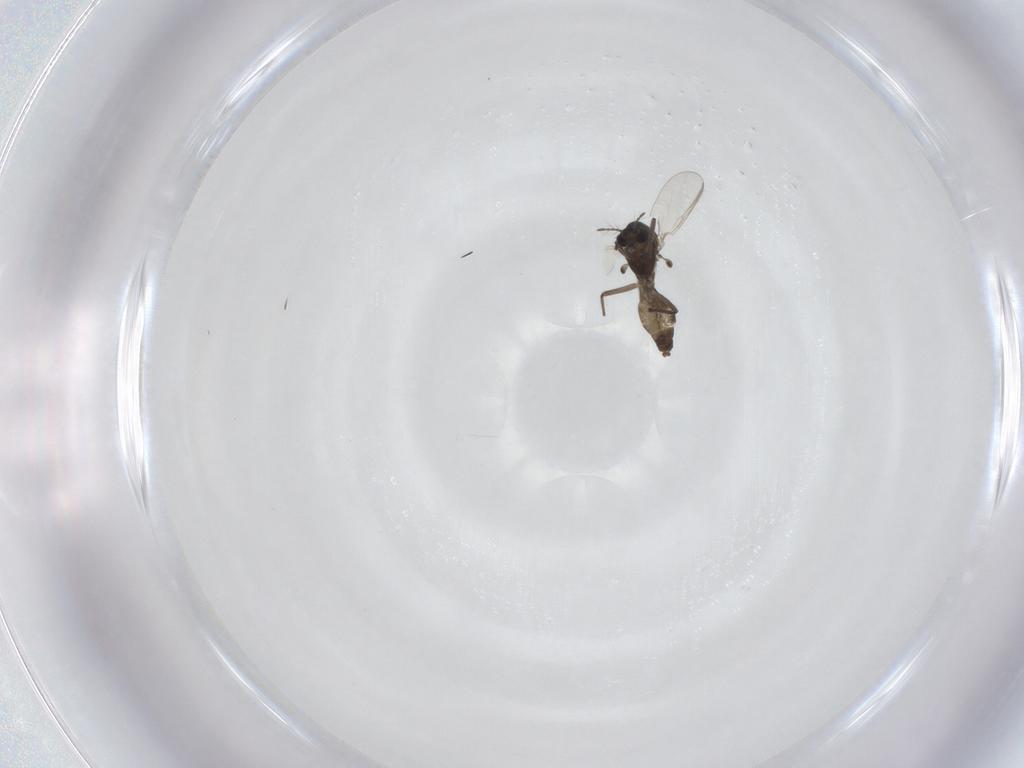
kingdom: Animalia
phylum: Arthropoda
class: Insecta
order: Diptera
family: Chironomidae
